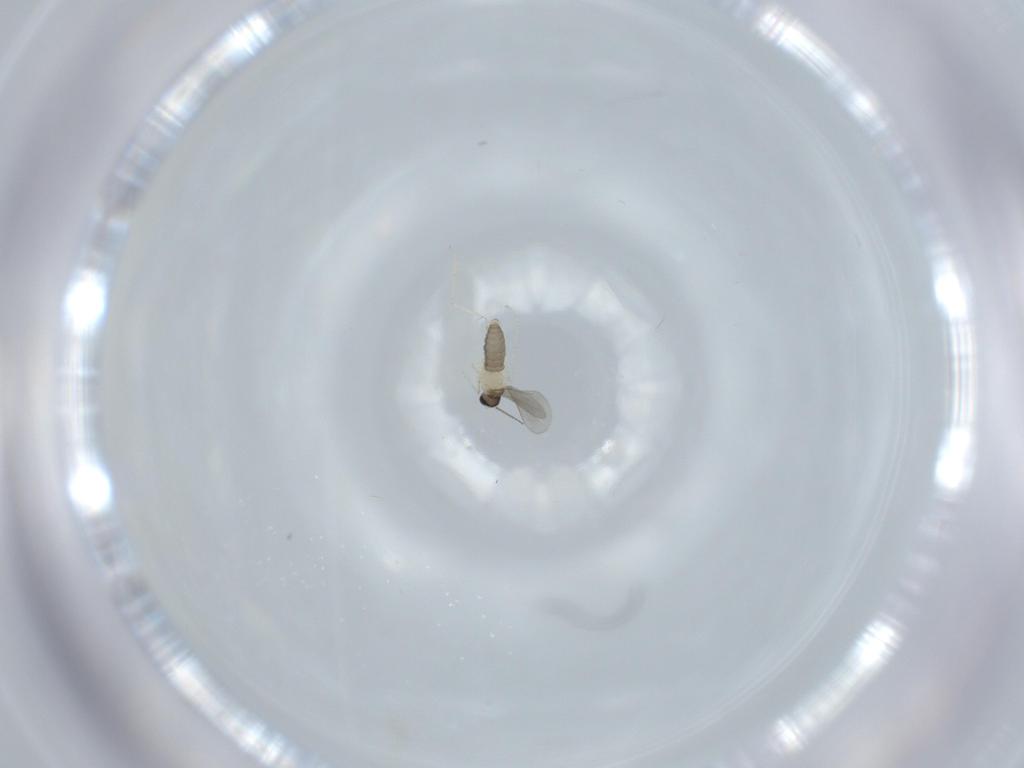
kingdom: Animalia
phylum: Arthropoda
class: Insecta
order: Diptera
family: Cecidomyiidae
